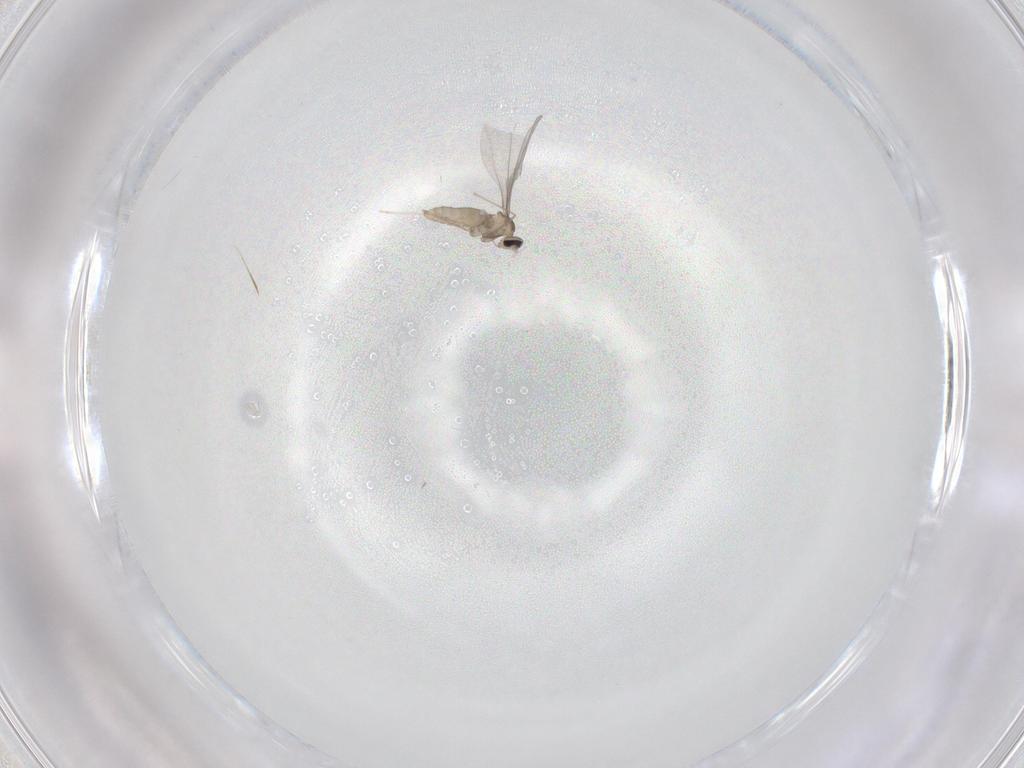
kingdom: Animalia
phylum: Arthropoda
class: Insecta
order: Diptera
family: Cecidomyiidae
